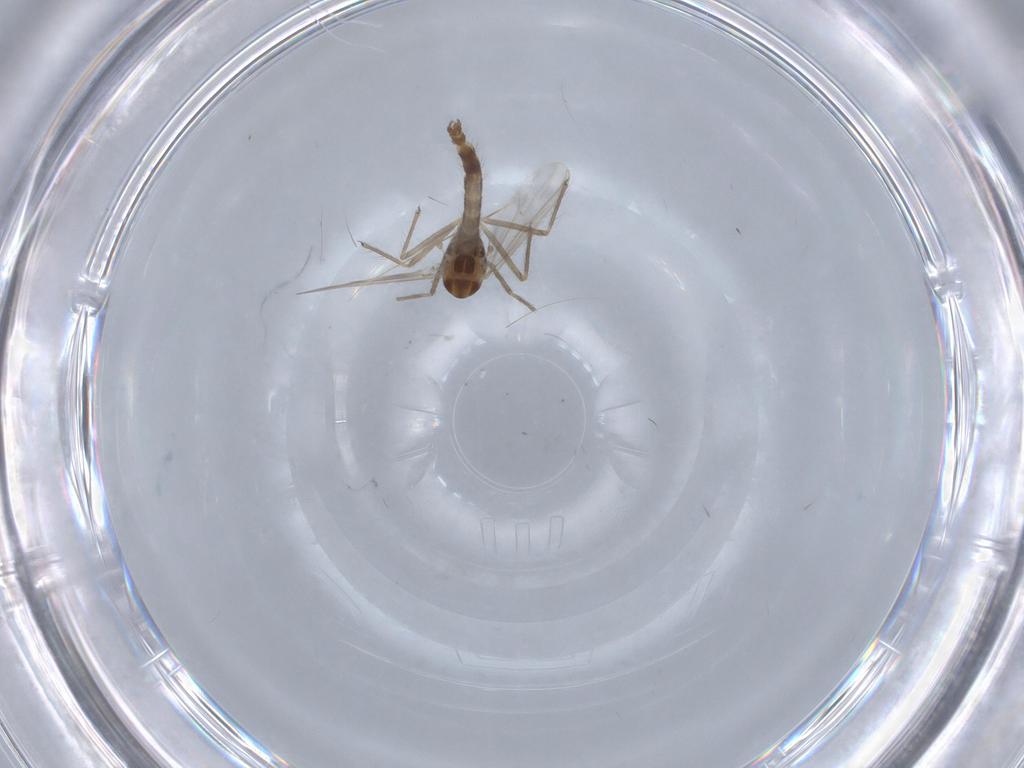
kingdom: Animalia
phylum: Arthropoda
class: Insecta
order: Diptera
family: Chironomidae
